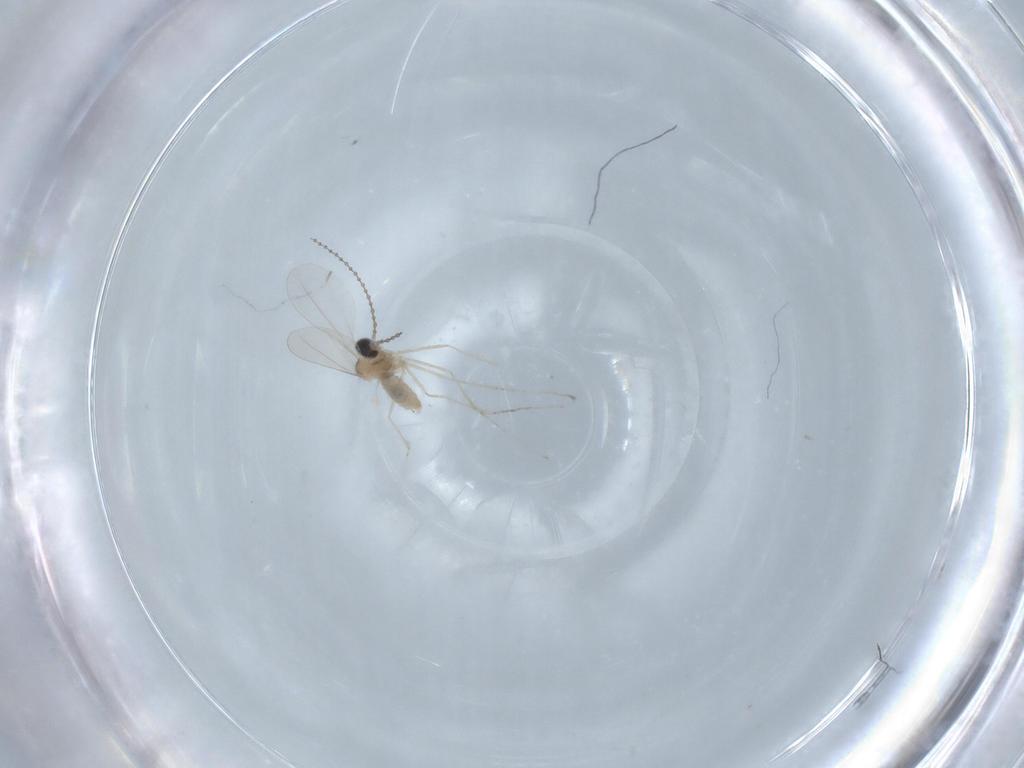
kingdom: Animalia
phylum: Arthropoda
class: Insecta
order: Diptera
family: Cecidomyiidae
